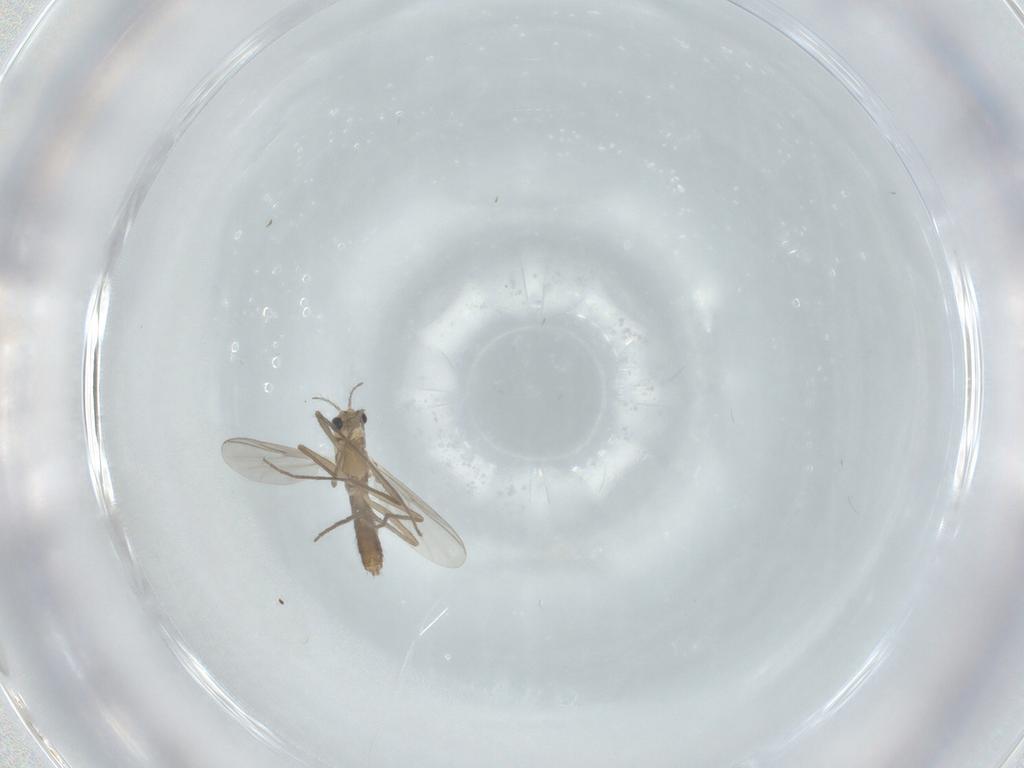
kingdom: Animalia
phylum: Arthropoda
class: Insecta
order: Diptera
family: Chironomidae
